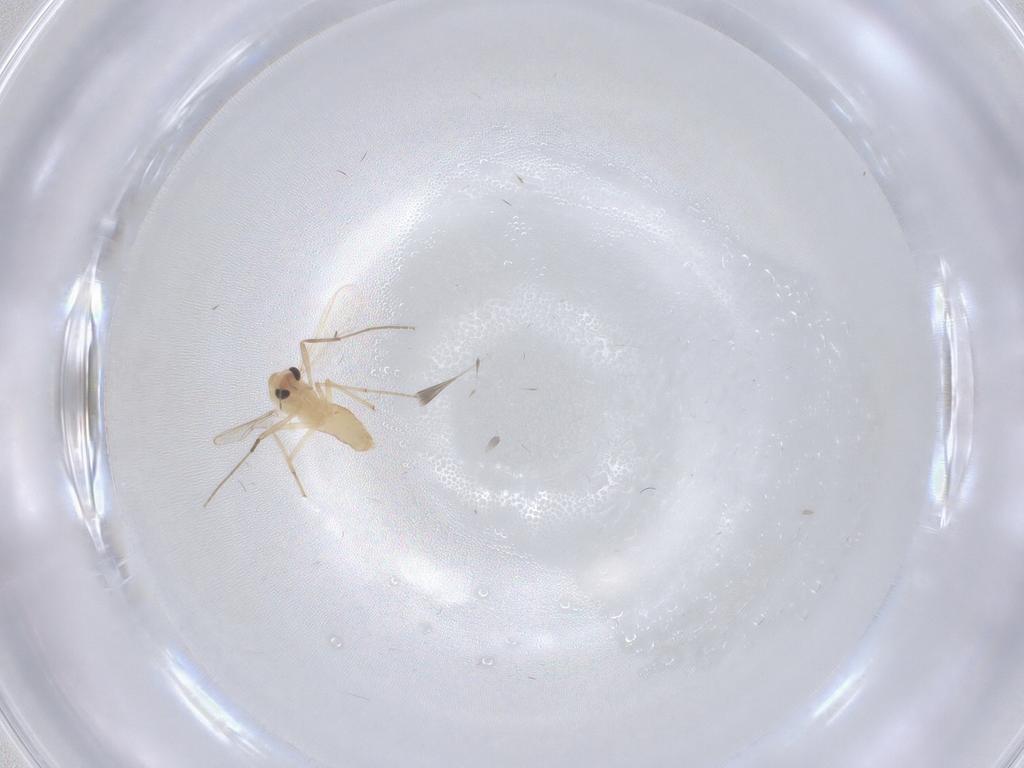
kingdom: Animalia
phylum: Arthropoda
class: Insecta
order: Diptera
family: Chironomidae
